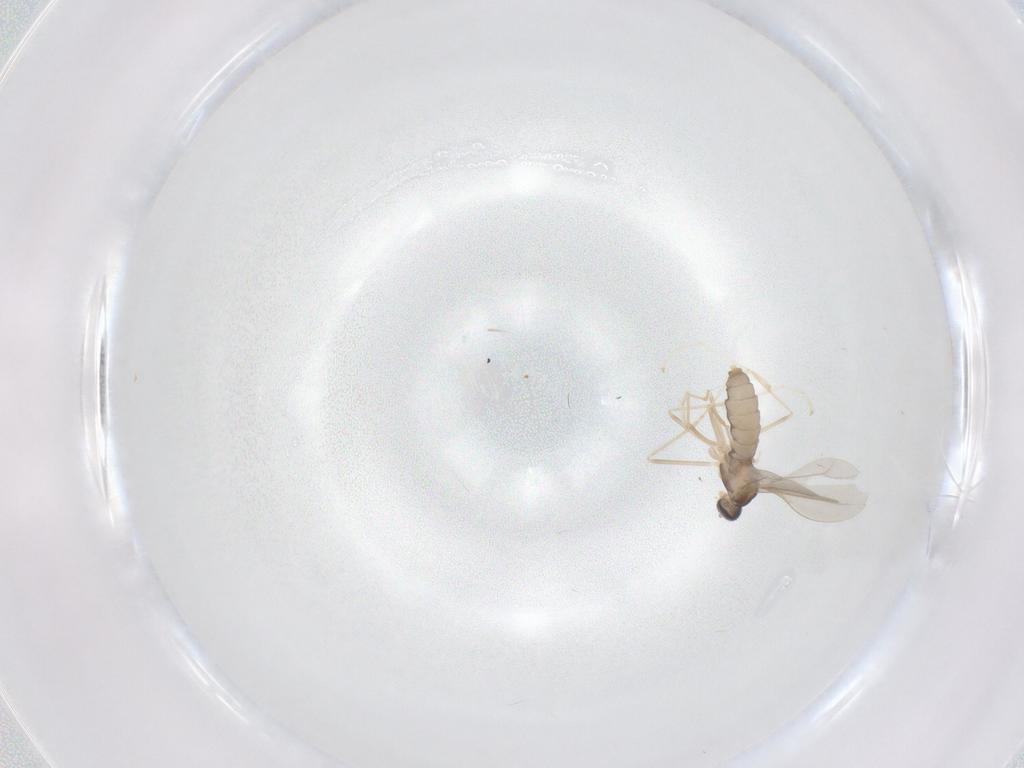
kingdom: Animalia
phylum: Arthropoda
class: Insecta
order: Diptera
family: Cecidomyiidae
